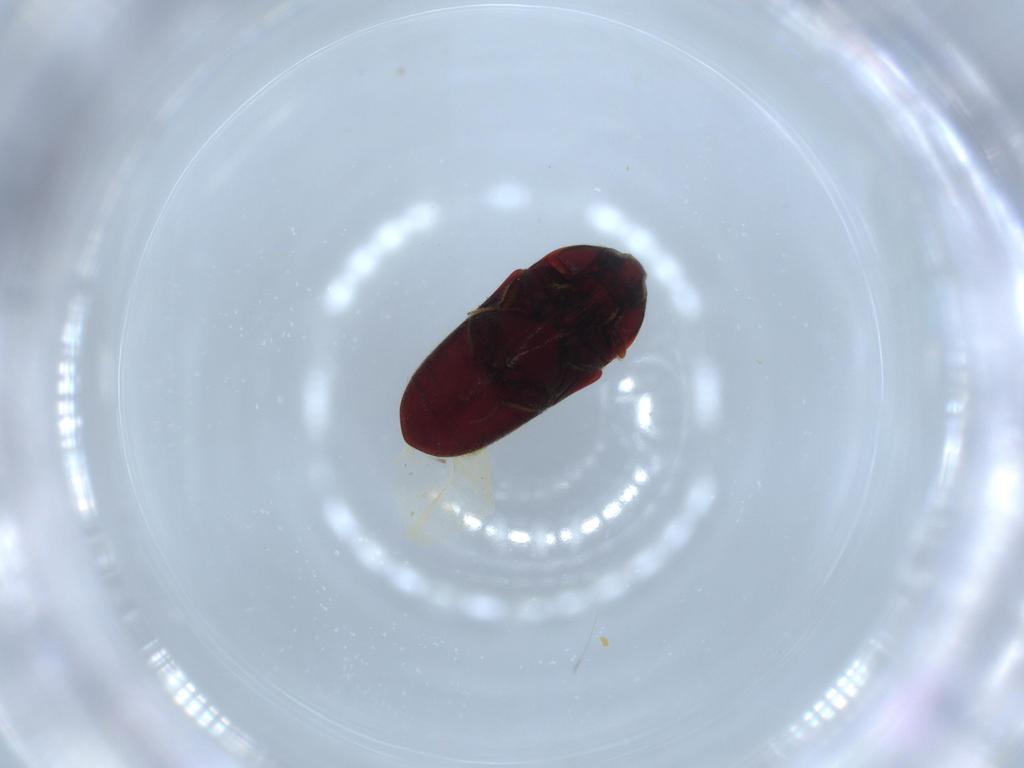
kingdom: Animalia
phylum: Arthropoda
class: Insecta
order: Coleoptera
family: Throscidae
